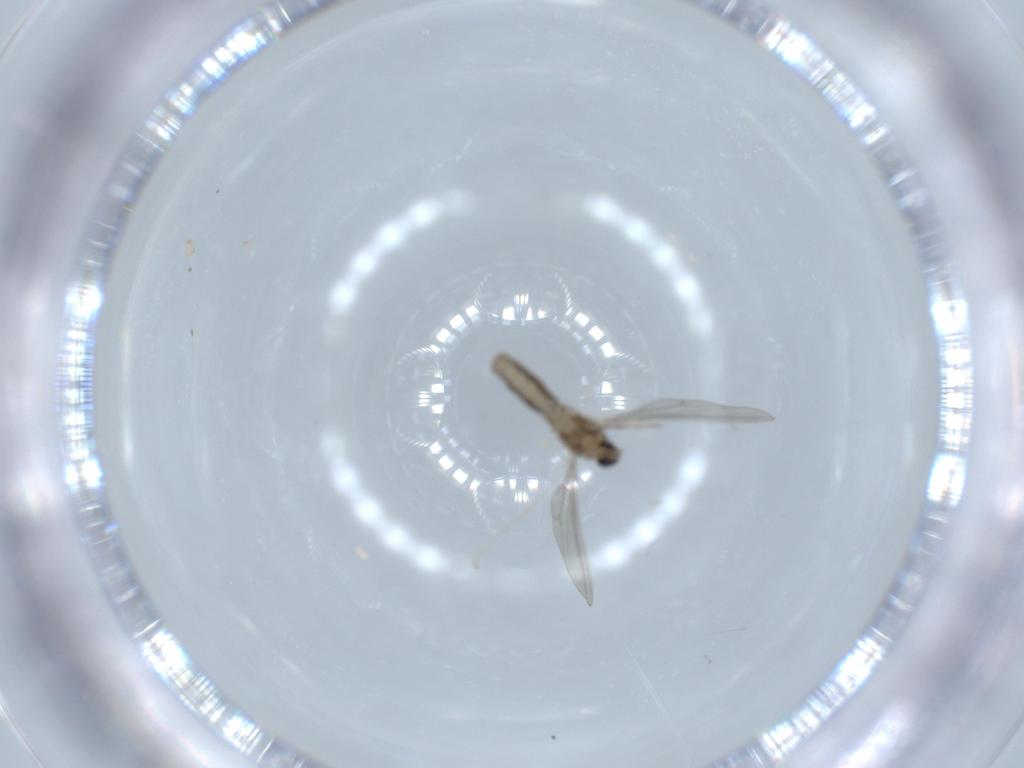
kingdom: Animalia
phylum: Arthropoda
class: Insecta
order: Diptera
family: Cecidomyiidae
